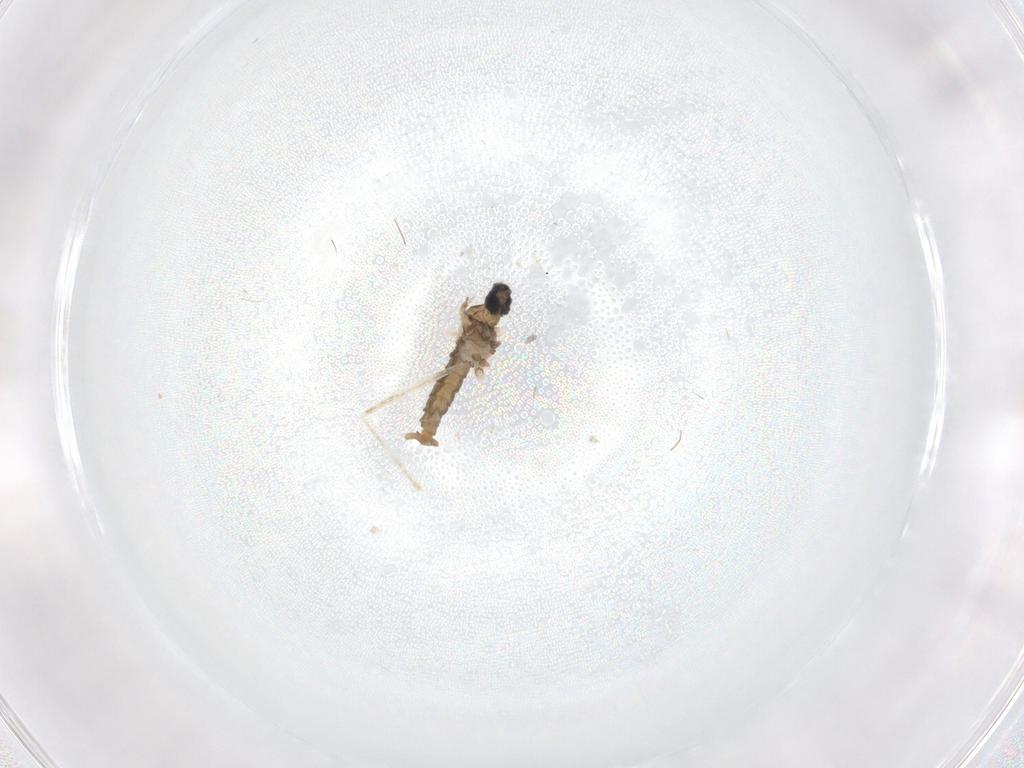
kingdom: Animalia
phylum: Arthropoda
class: Insecta
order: Diptera
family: Cecidomyiidae
